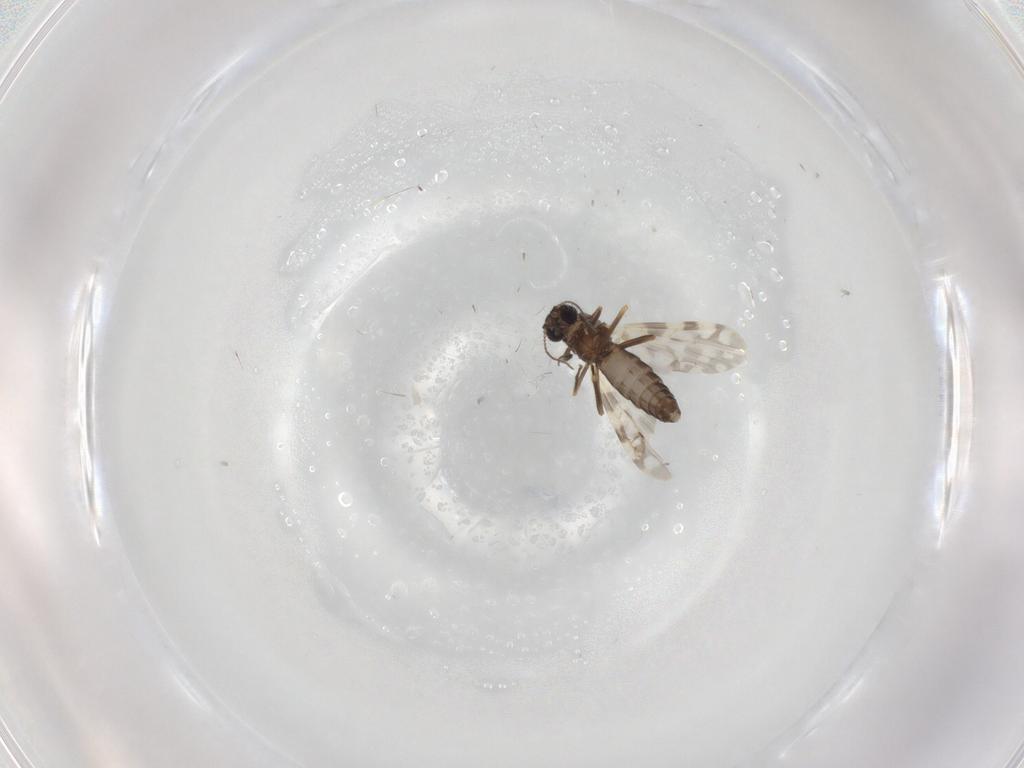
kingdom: Animalia
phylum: Arthropoda
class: Insecta
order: Diptera
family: Ceratopogonidae
